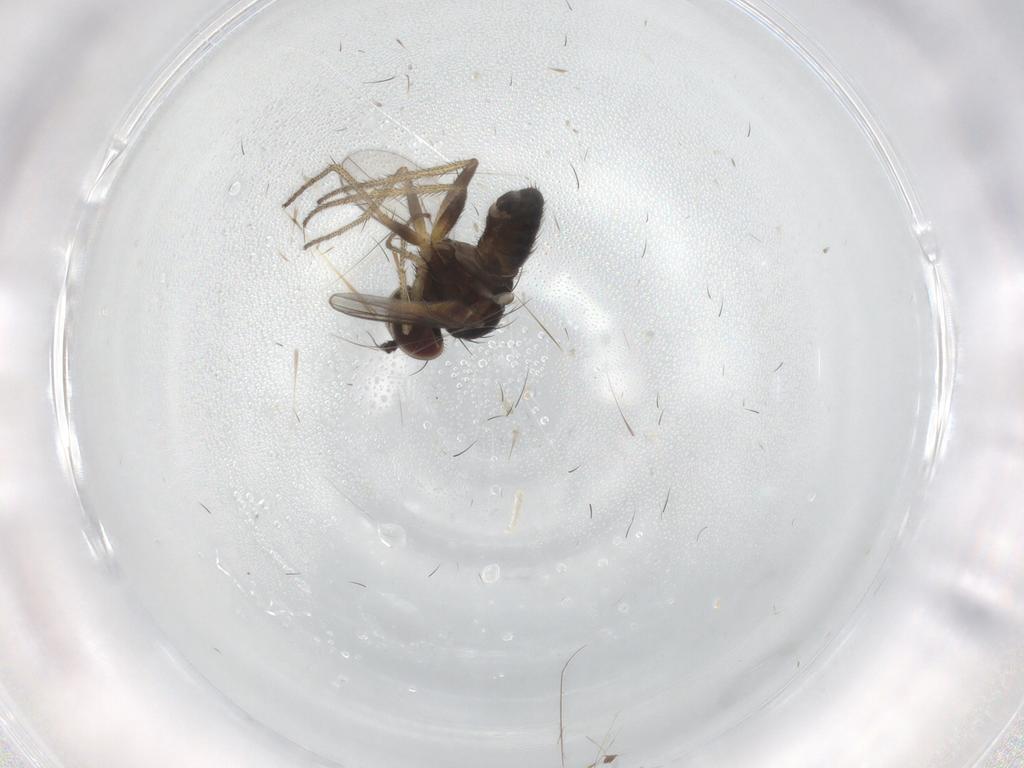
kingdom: Animalia
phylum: Arthropoda
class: Insecta
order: Diptera
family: Dolichopodidae
